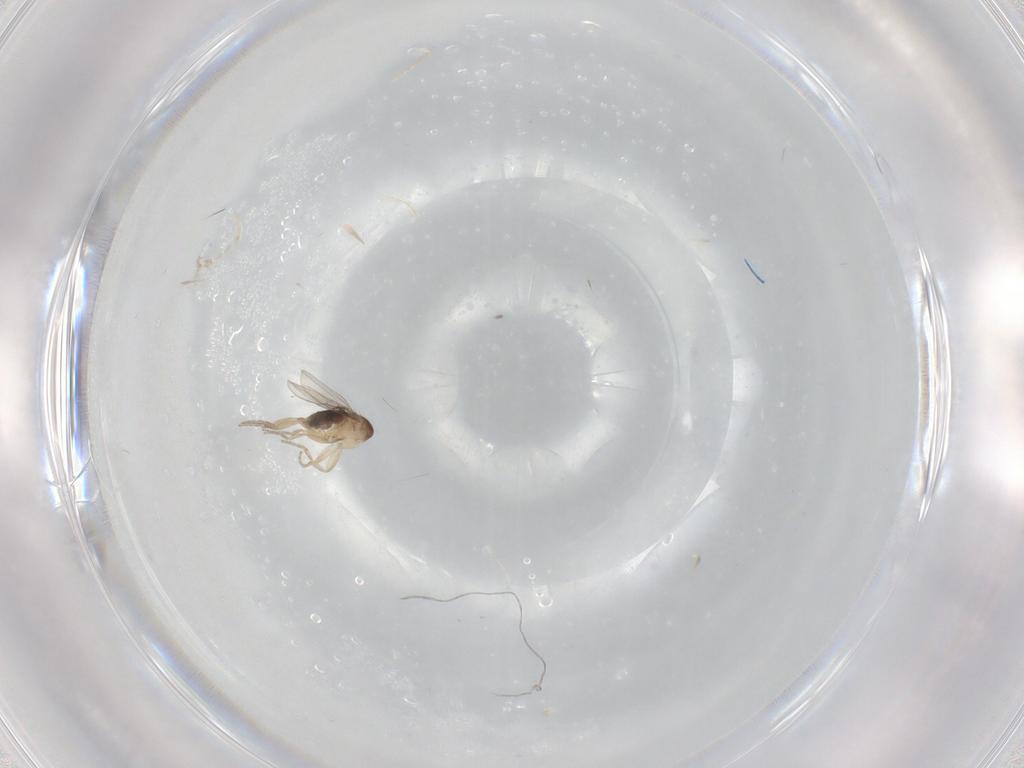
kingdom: Animalia
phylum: Arthropoda
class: Insecta
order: Diptera
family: Phoridae
